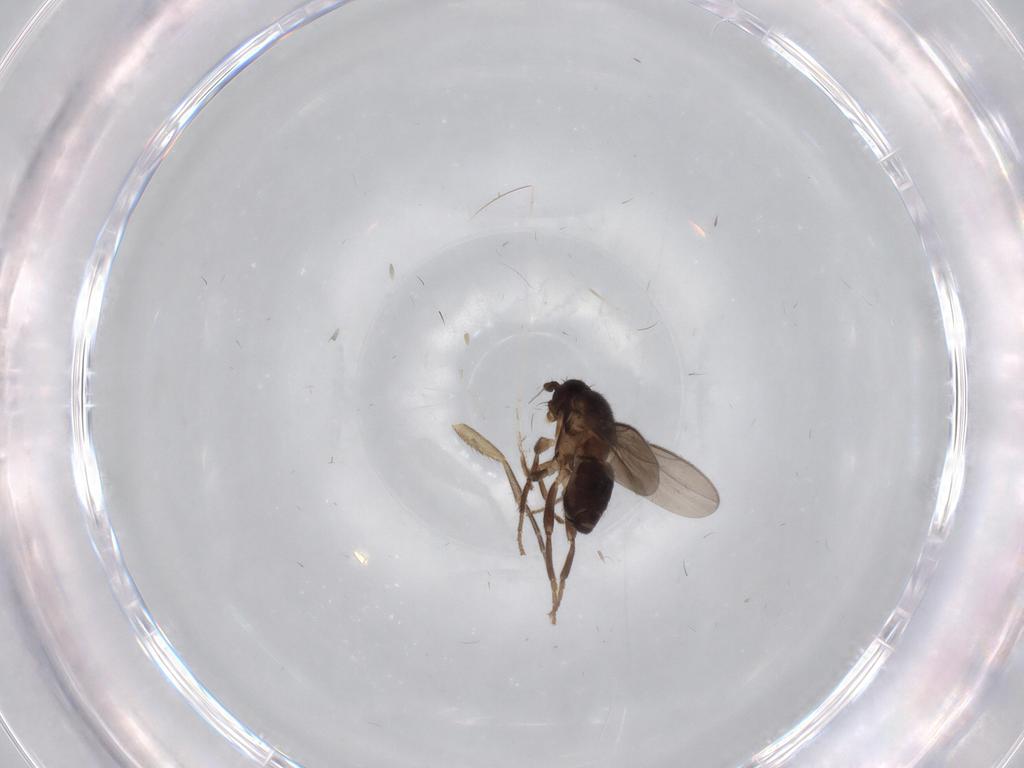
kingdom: Animalia
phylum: Arthropoda
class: Insecta
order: Diptera
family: Sphaeroceridae
